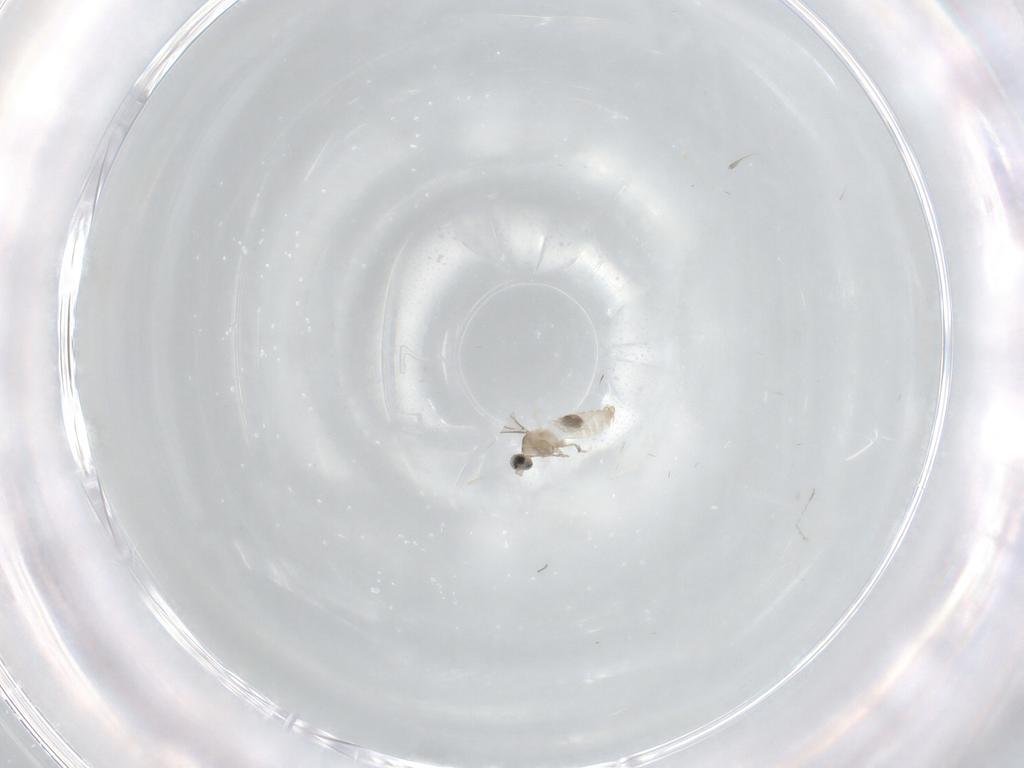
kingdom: Animalia
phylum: Arthropoda
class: Insecta
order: Diptera
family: Cecidomyiidae
